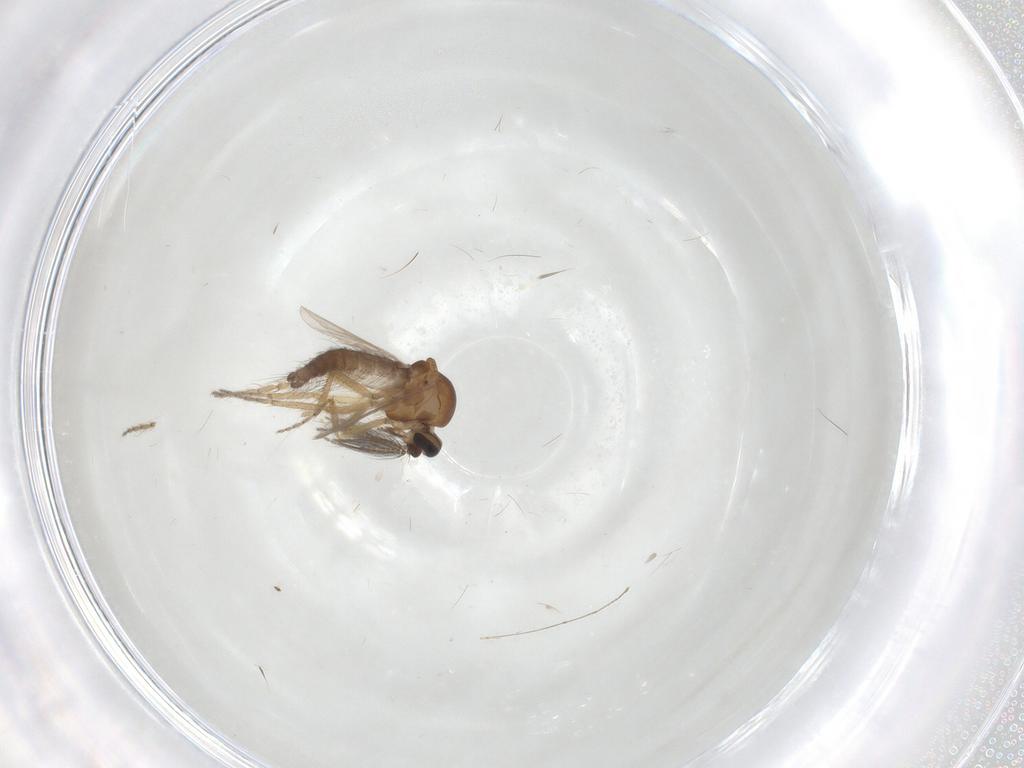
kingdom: Animalia
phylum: Arthropoda
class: Insecta
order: Diptera
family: Ceratopogonidae
